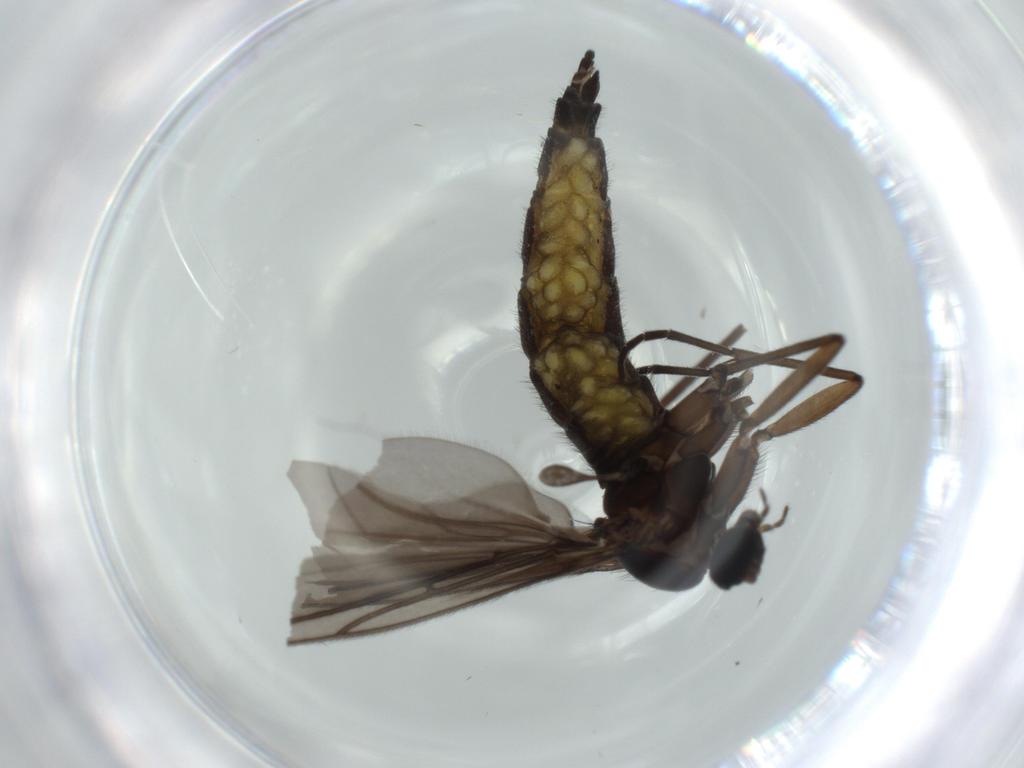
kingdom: Animalia
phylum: Arthropoda
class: Insecta
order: Diptera
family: Sciaridae
